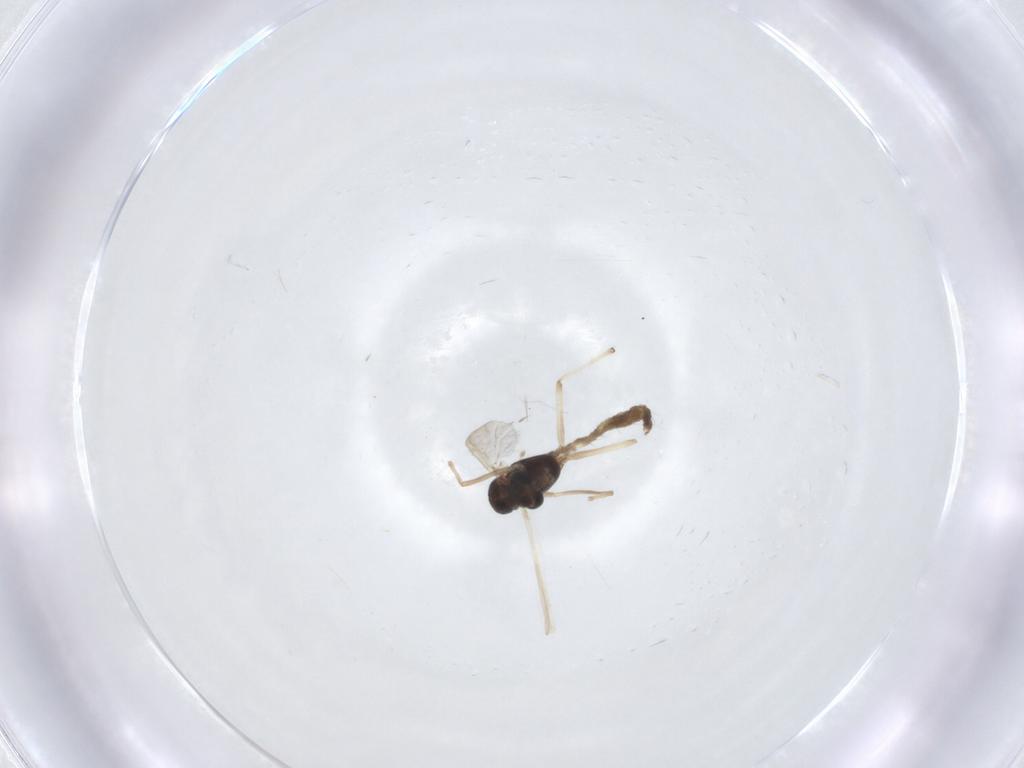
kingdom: Animalia
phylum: Arthropoda
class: Insecta
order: Diptera
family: Chironomidae
